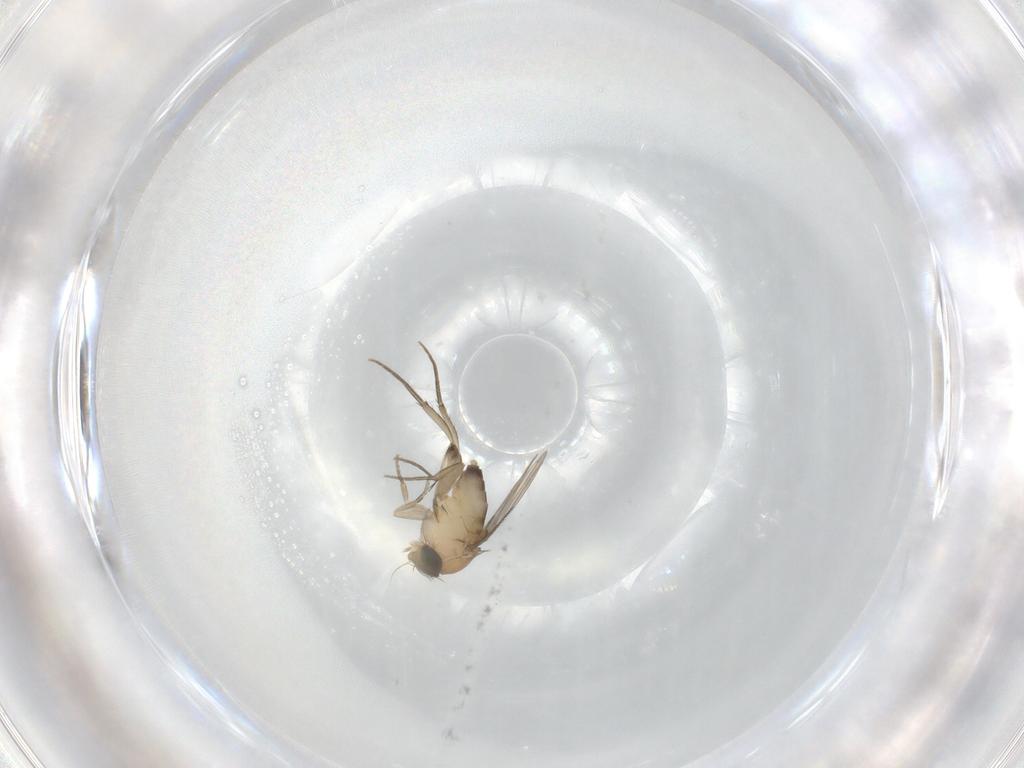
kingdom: Animalia
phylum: Arthropoda
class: Insecta
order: Diptera
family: Phoridae
